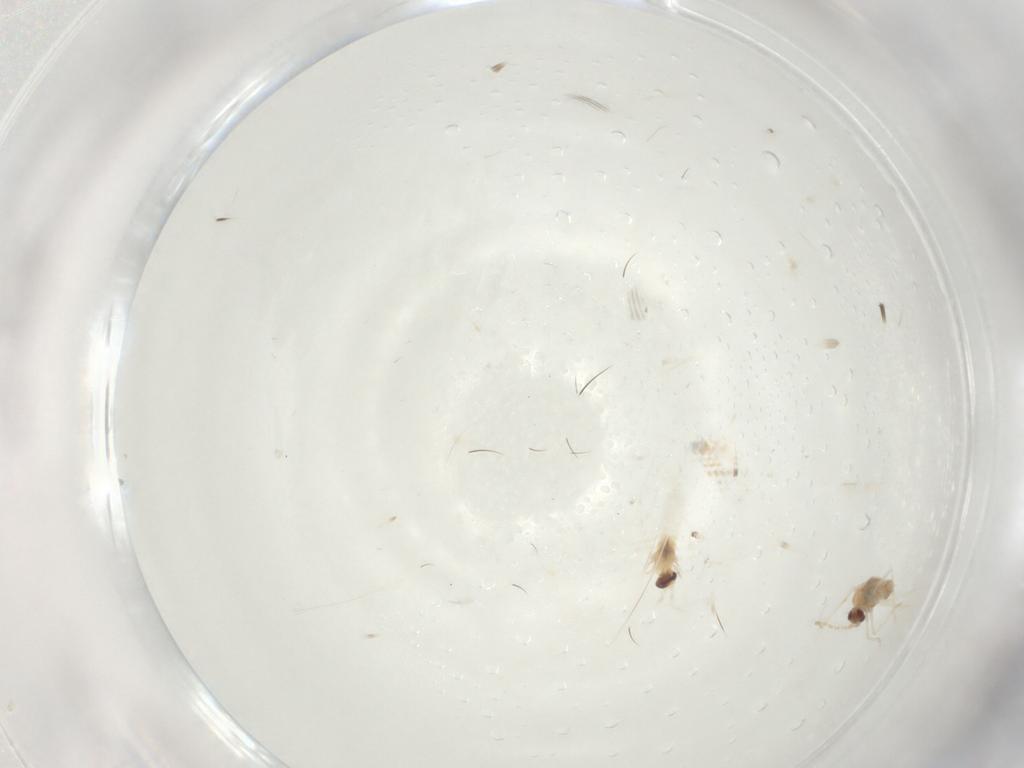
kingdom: Animalia
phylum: Arthropoda
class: Insecta
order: Diptera
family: Cecidomyiidae
